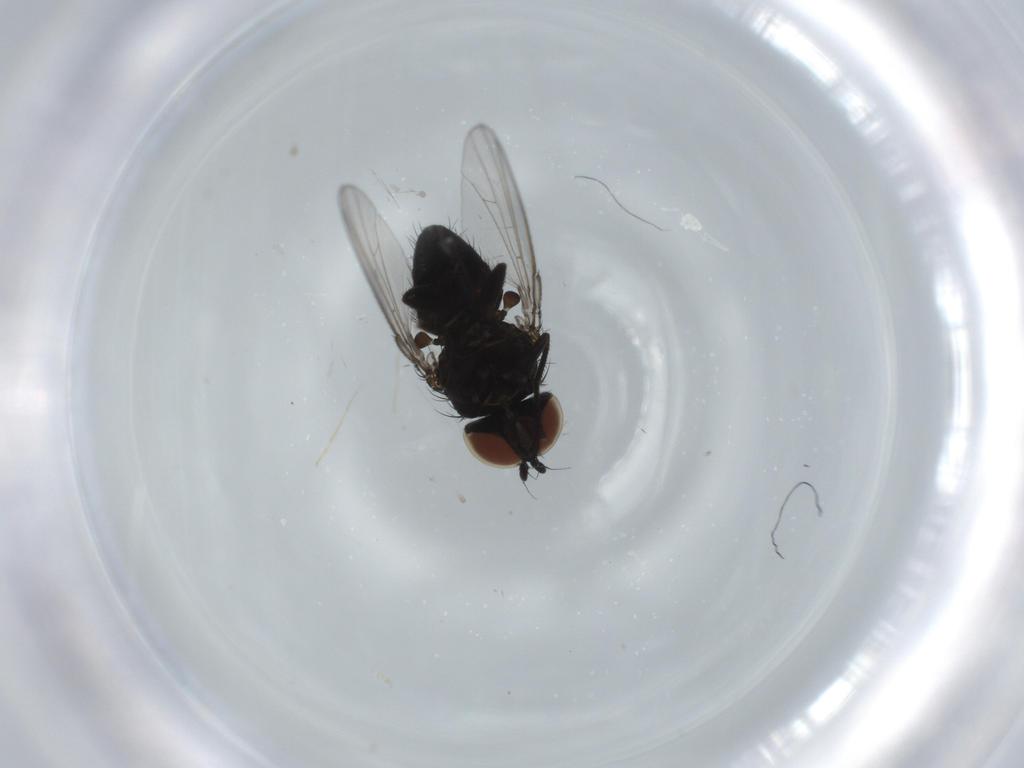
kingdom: Animalia
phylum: Arthropoda
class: Insecta
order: Diptera
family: Milichiidae
